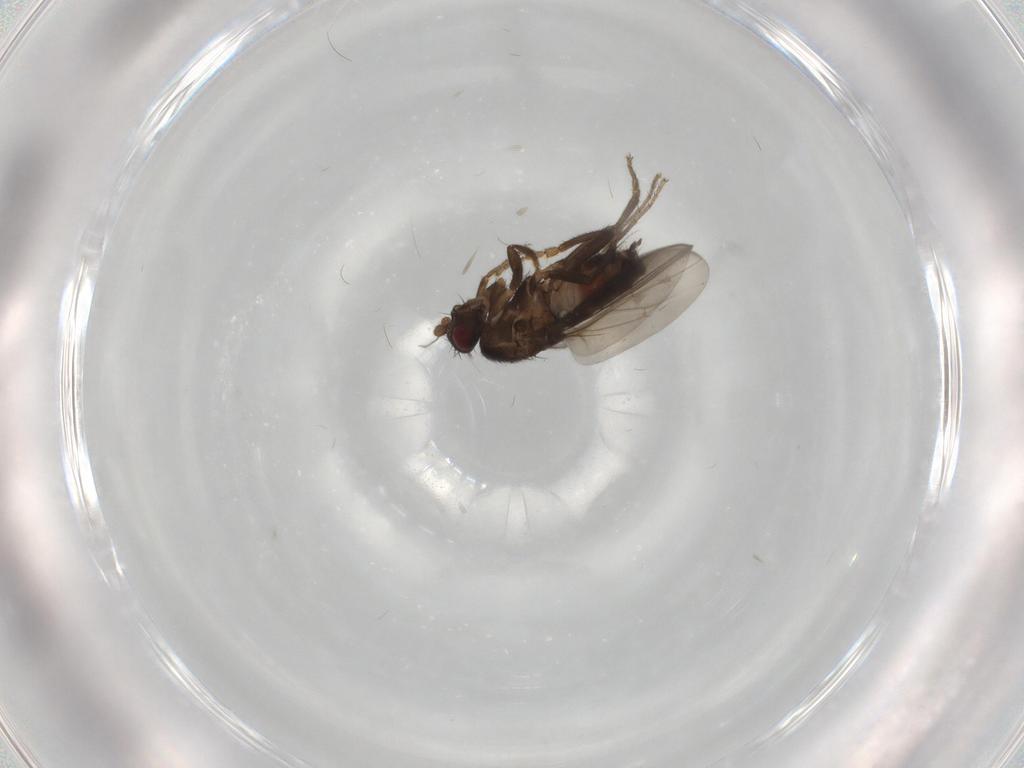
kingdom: Animalia
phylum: Arthropoda
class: Insecta
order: Diptera
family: Sphaeroceridae
